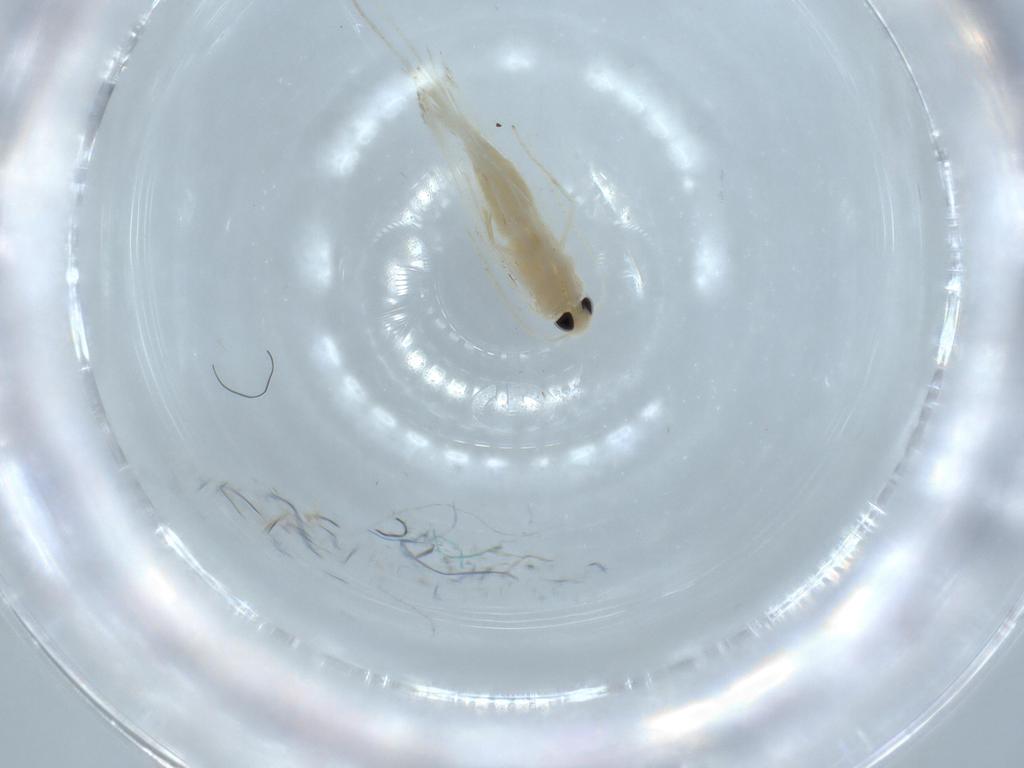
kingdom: Animalia
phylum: Arthropoda
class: Insecta
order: Lepidoptera
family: Gracillariidae
